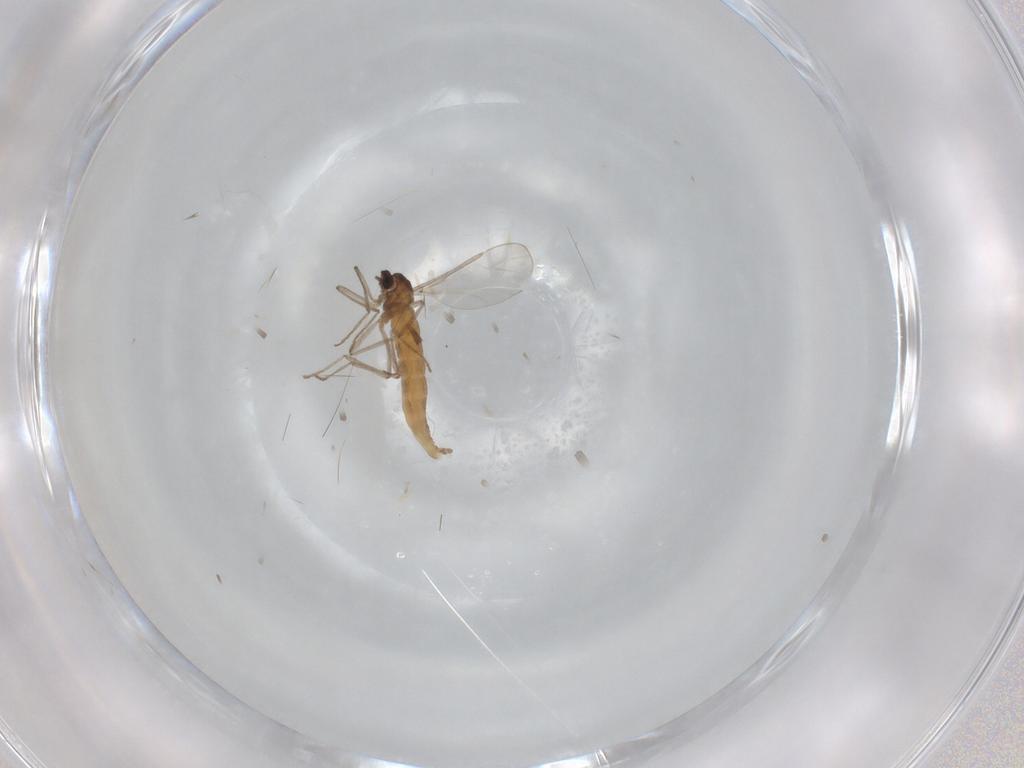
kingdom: Animalia
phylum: Arthropoda
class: Insecta
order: Diptera
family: Cecidomyiidae
